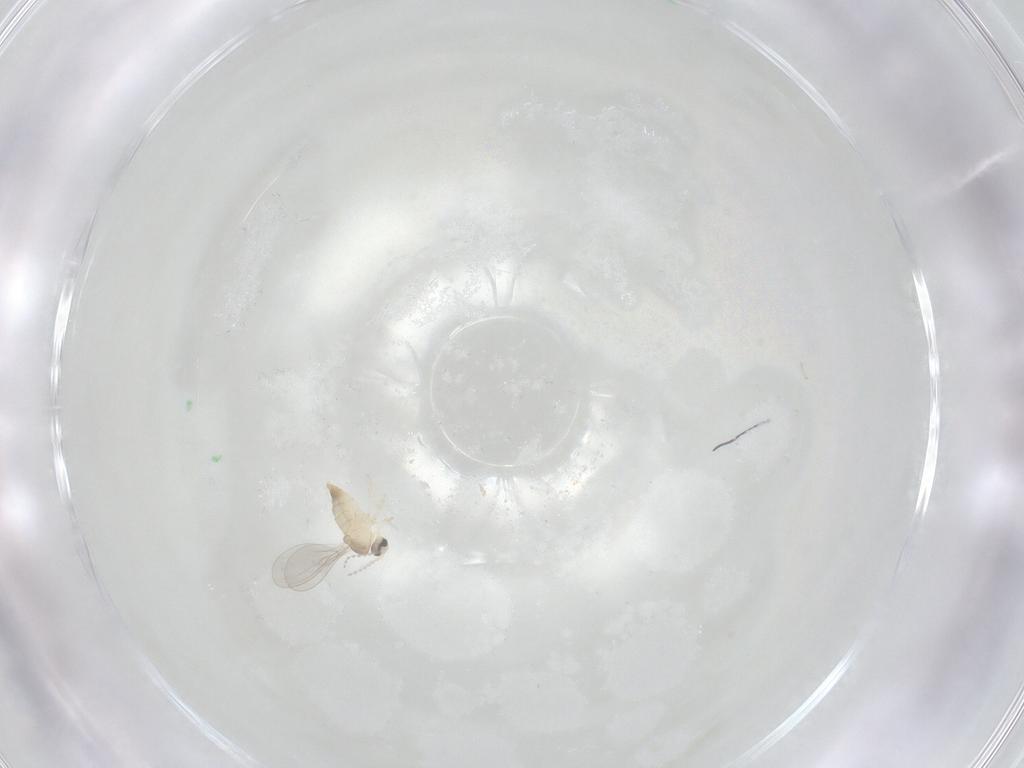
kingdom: Animalia
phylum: Arthropoda
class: Insecta
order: Diptera
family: Cecidomyiidae
